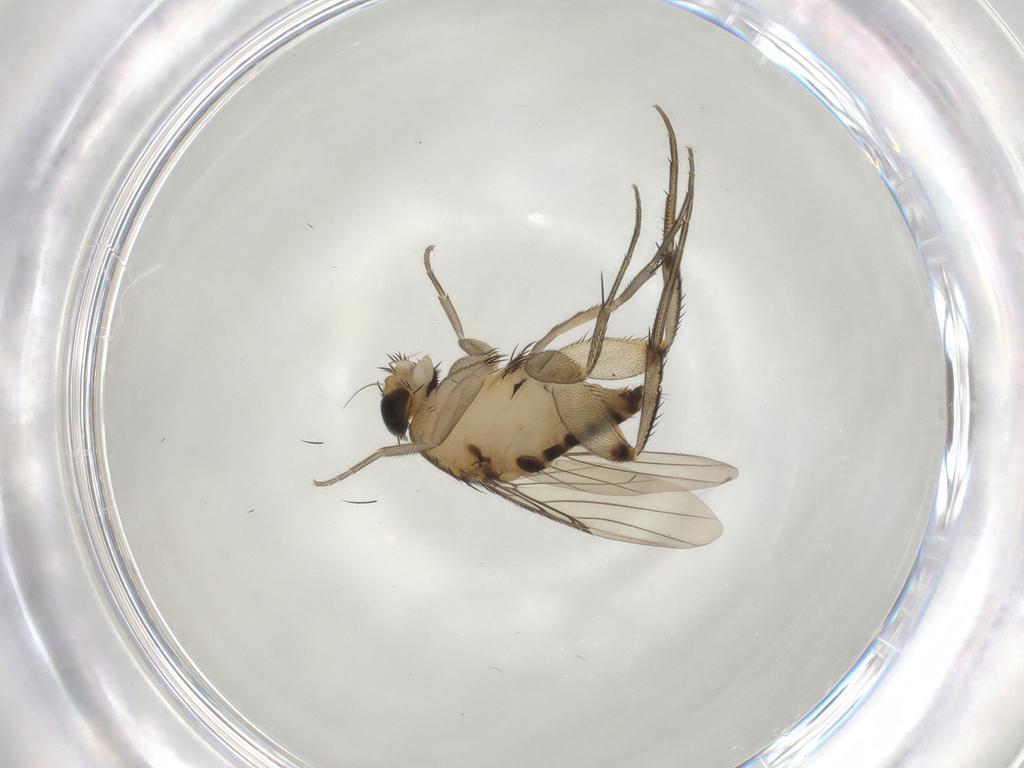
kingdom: Animalia
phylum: Arthropoda
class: Insecta
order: Diptera
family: Phoridae
